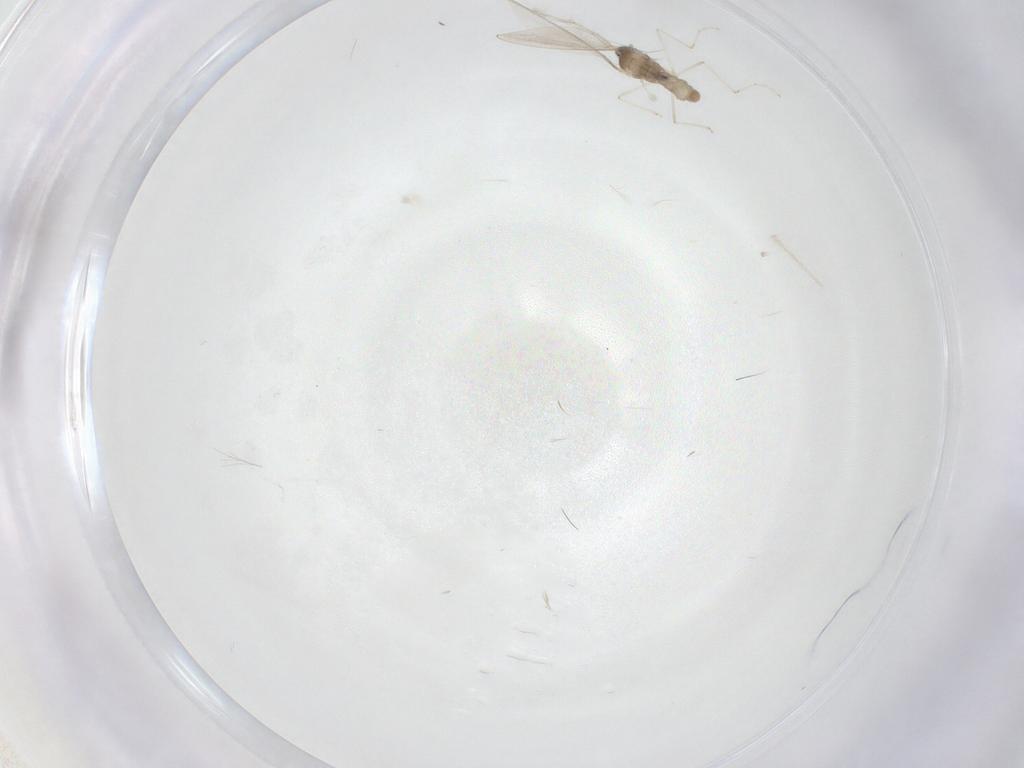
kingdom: Animalia
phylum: Arthropoda
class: Insecta
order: Diptera
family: Cecidomyiidae
